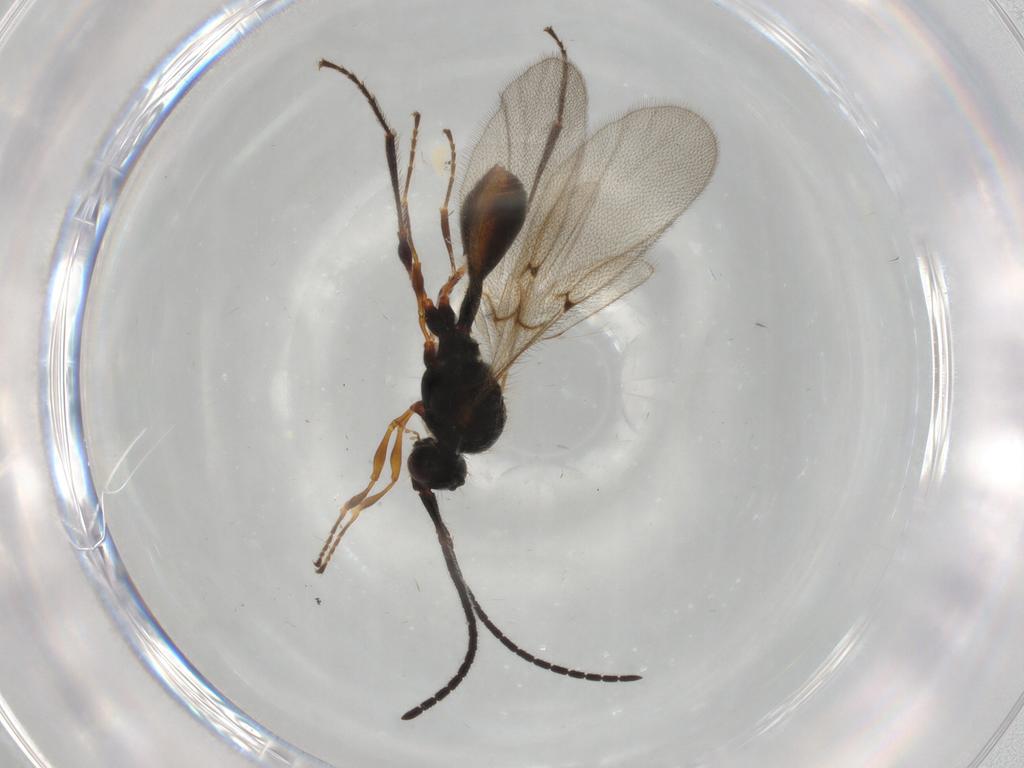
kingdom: Animalia
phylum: Arthropoda
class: Insecta
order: Hymenoptera
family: Diapriidae
